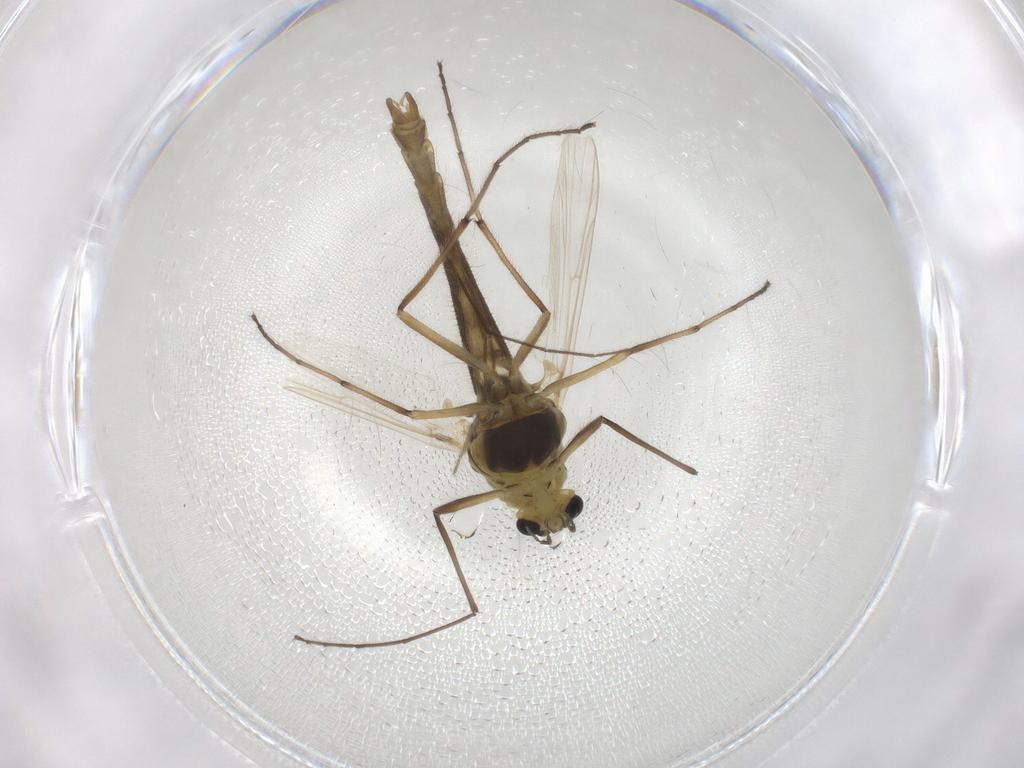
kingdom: Animalia
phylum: Arthropoda
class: Insecta
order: Diptera
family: Chironomidae
